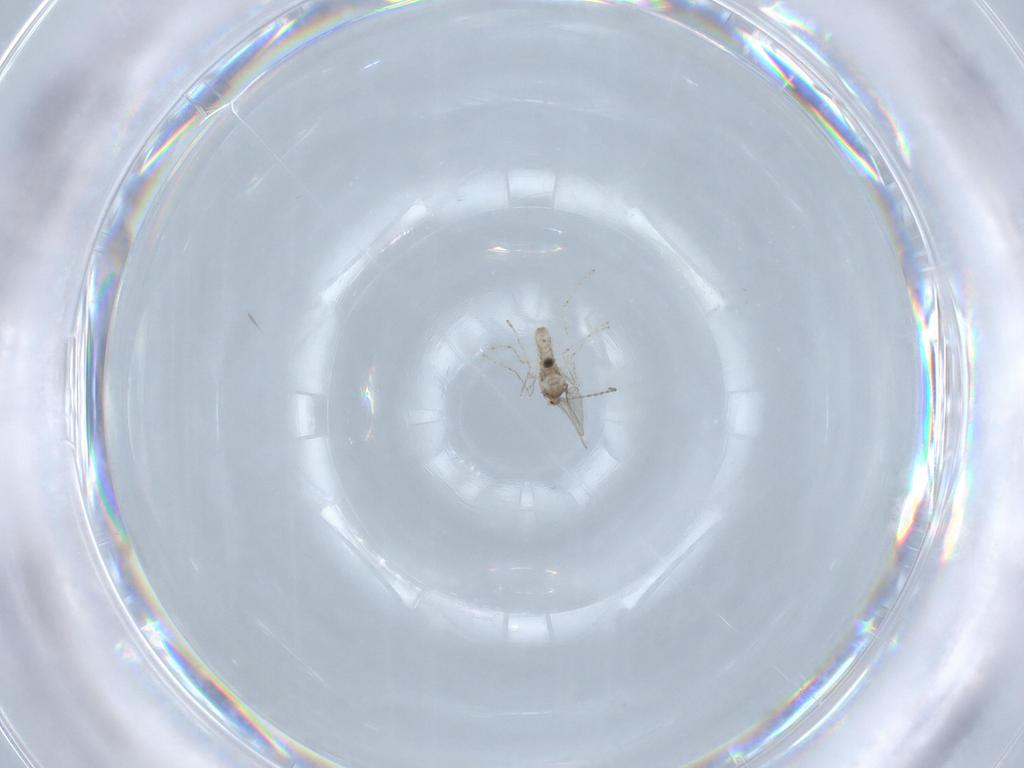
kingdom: Animalia
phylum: Arthropoda
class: Insecta
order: Diptera
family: Cecidomyiidae
